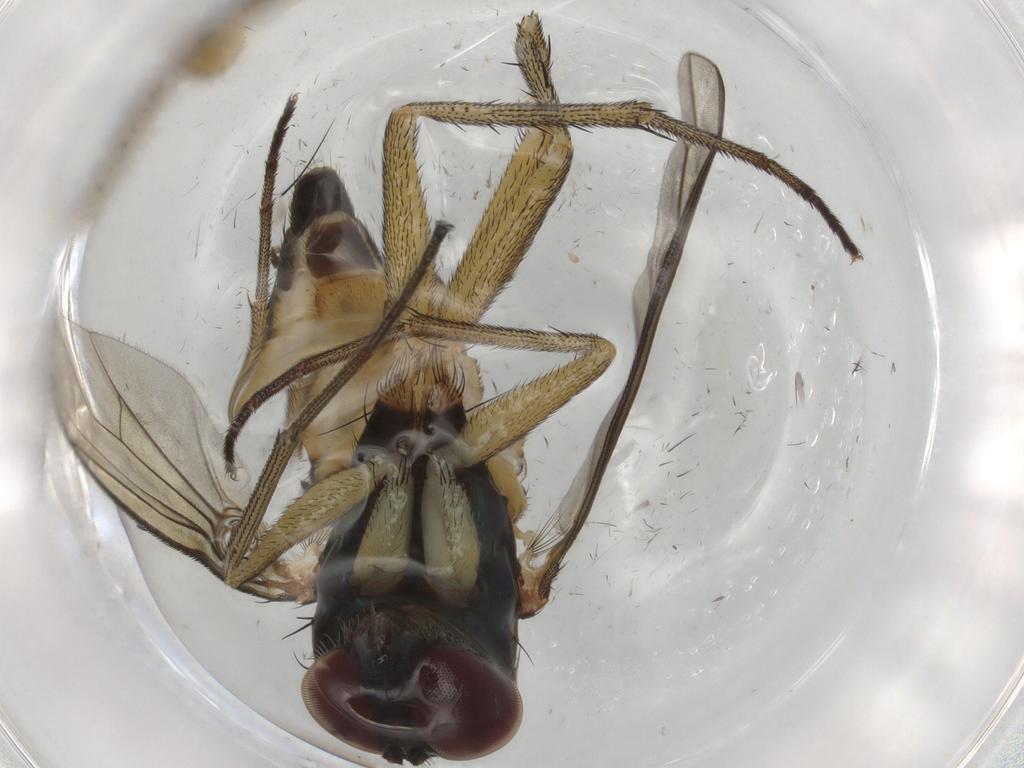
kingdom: Animalia
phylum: Arthropoda
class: Insecta
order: Diptera
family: Dolichopodidae
